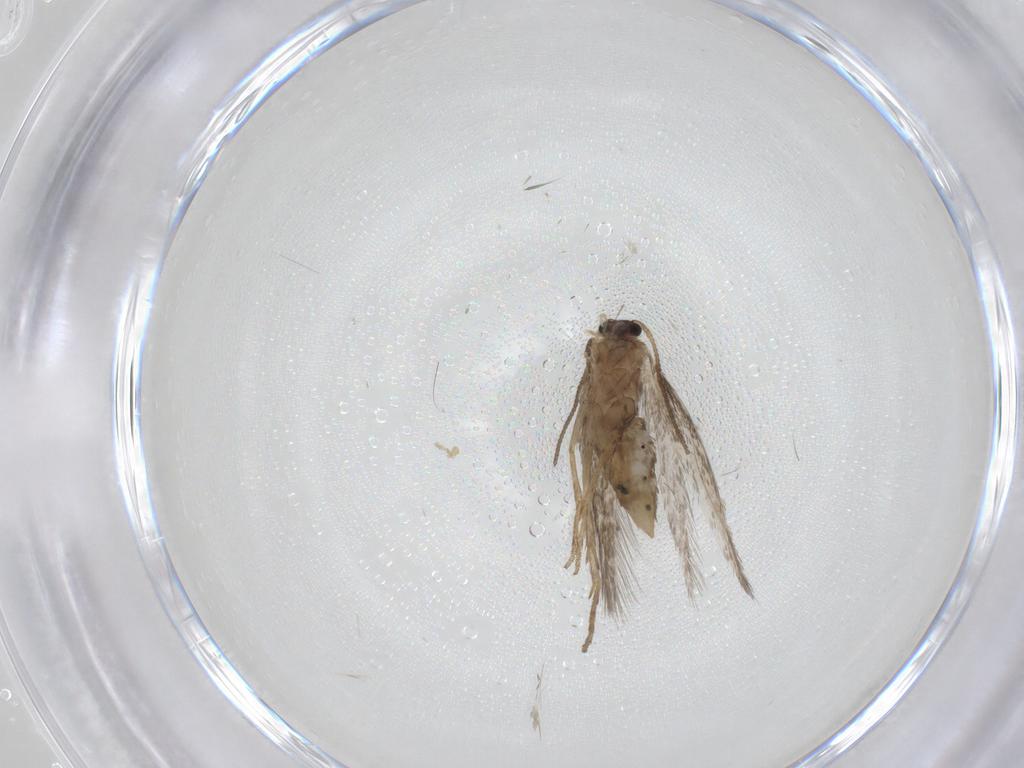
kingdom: Animalia
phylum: Arthropoda
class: Insecta
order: Lepidoptera
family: Nepticulidae
